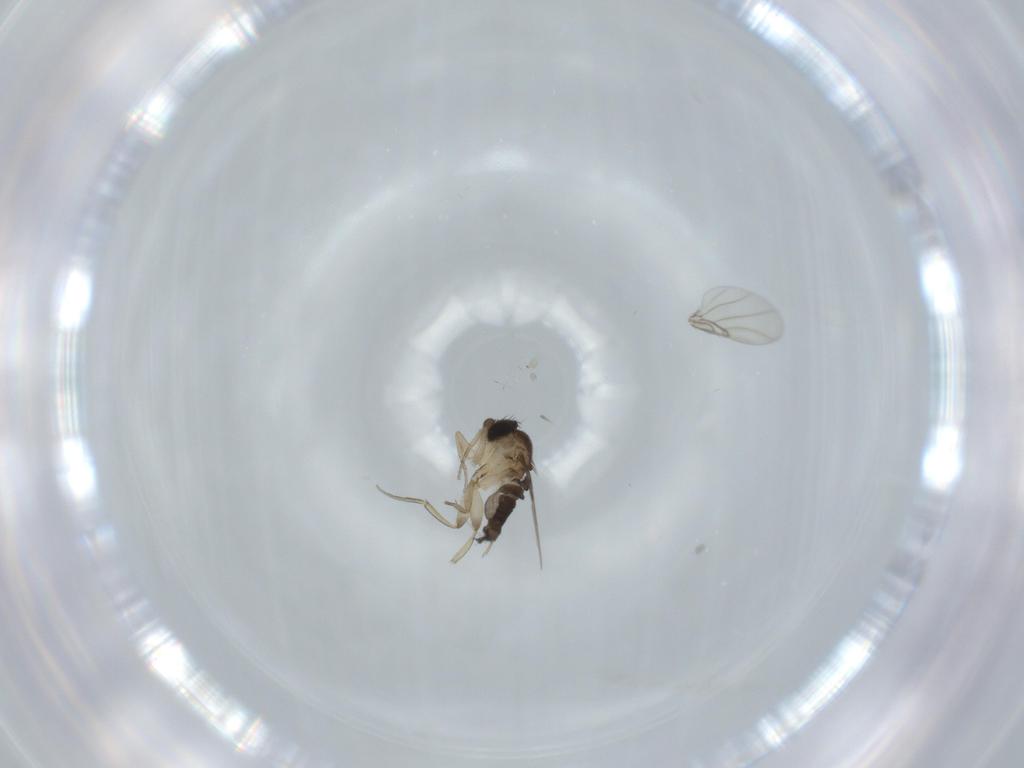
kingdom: Animalia
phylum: Arthropoda
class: Insecta
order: Diptera
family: Phoridae
